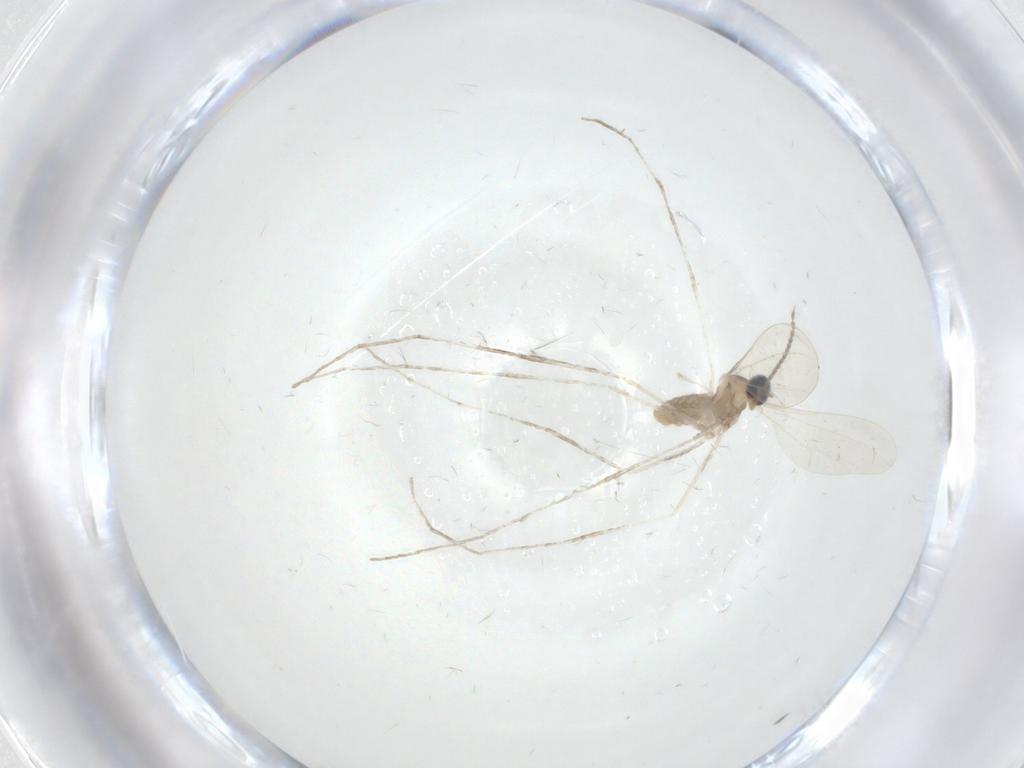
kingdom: Animalia
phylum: Arthropoda
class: Insecta
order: Diptera
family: Cecidomyiidae
